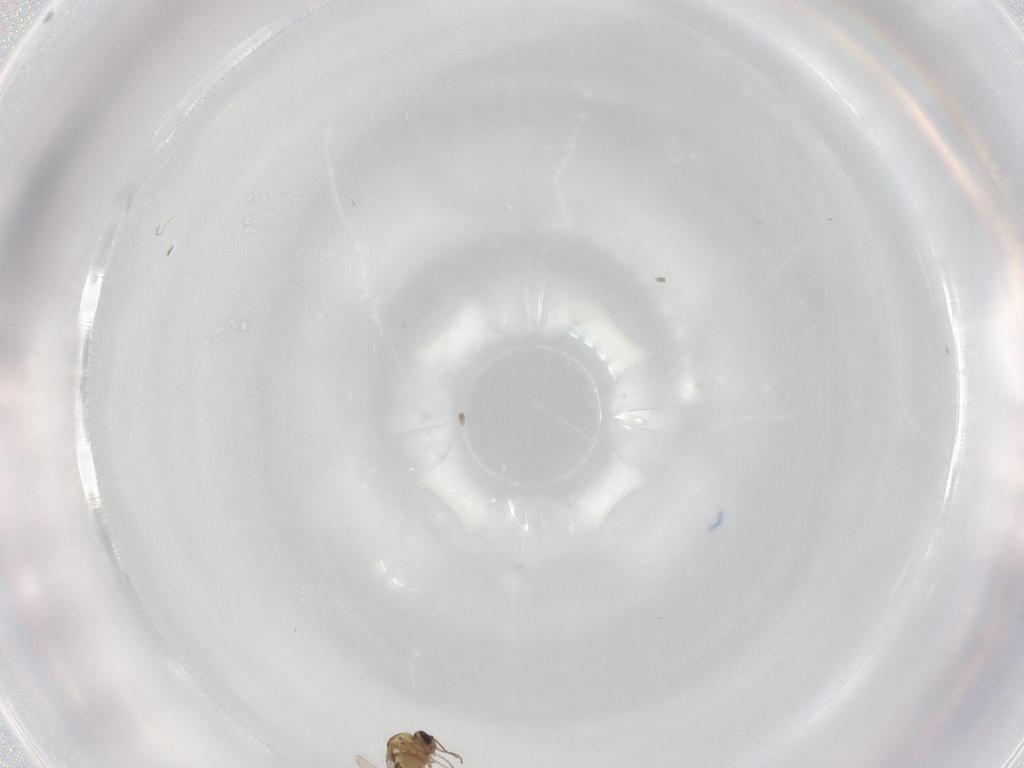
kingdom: Animalia
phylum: Arthropoda
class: Insecta
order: Diptera
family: Ceratopogonidae
